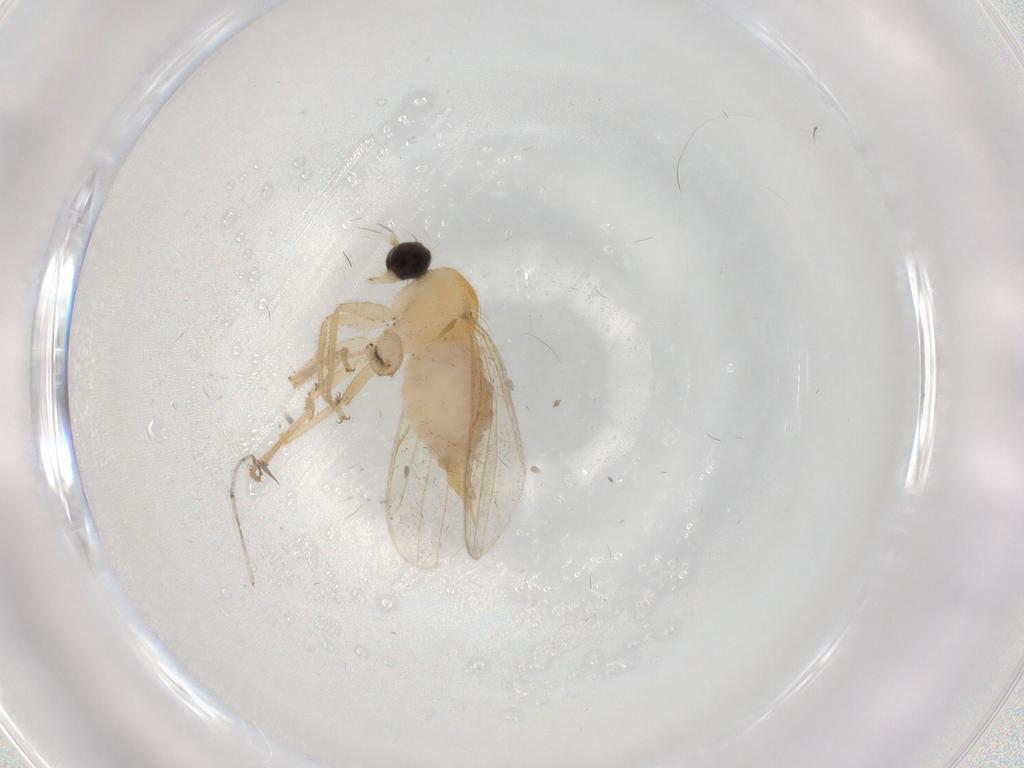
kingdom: Animalia
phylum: Arthropoda
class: Insecta
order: Diptera
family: Hybotidae
